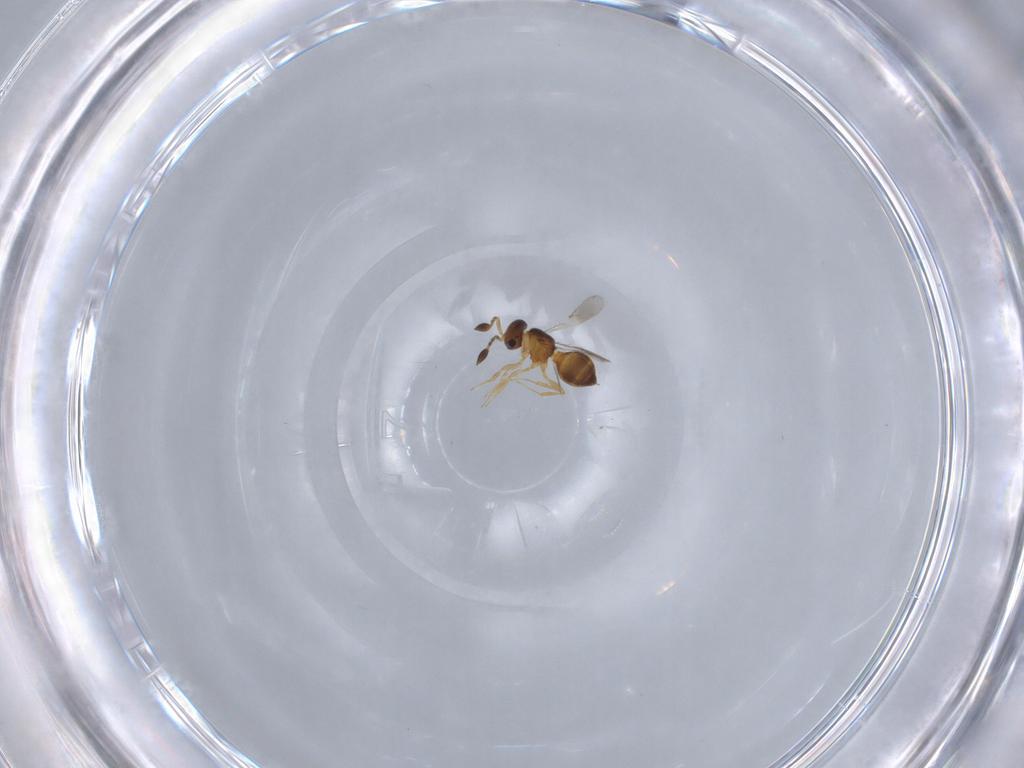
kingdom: Animalia
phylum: Arthropoda
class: Insecta
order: Hymenoptera
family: Scelionidae
